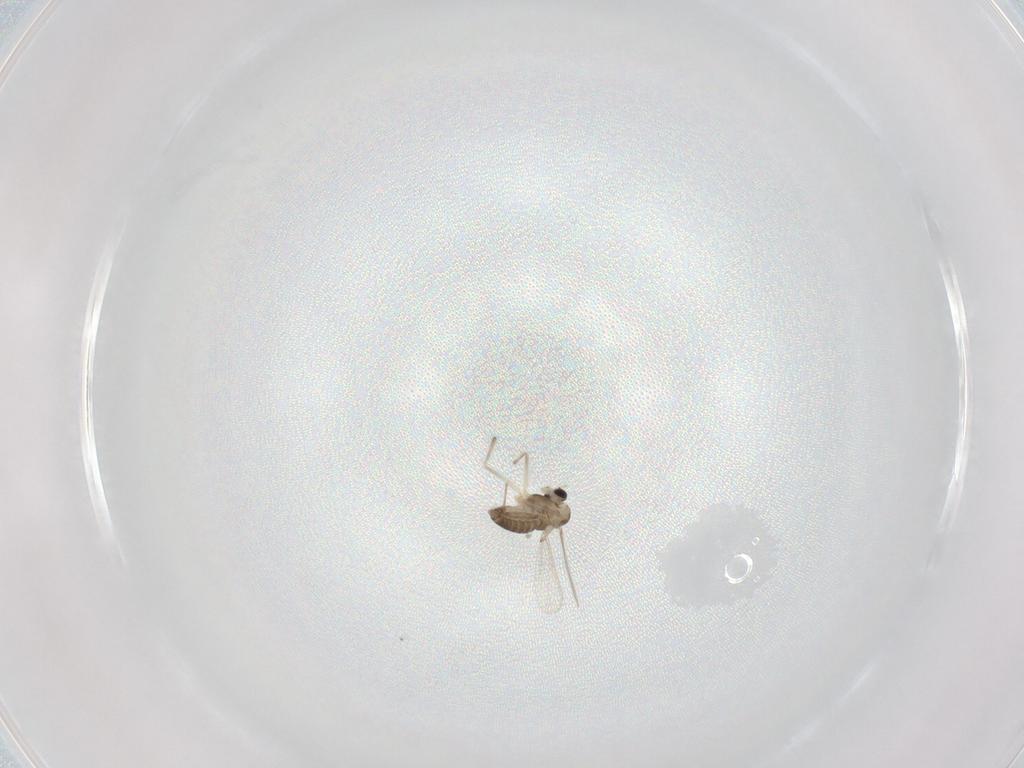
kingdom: Animalia
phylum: Arthropoda
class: Insecta
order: Diptera
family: Chironomidae
